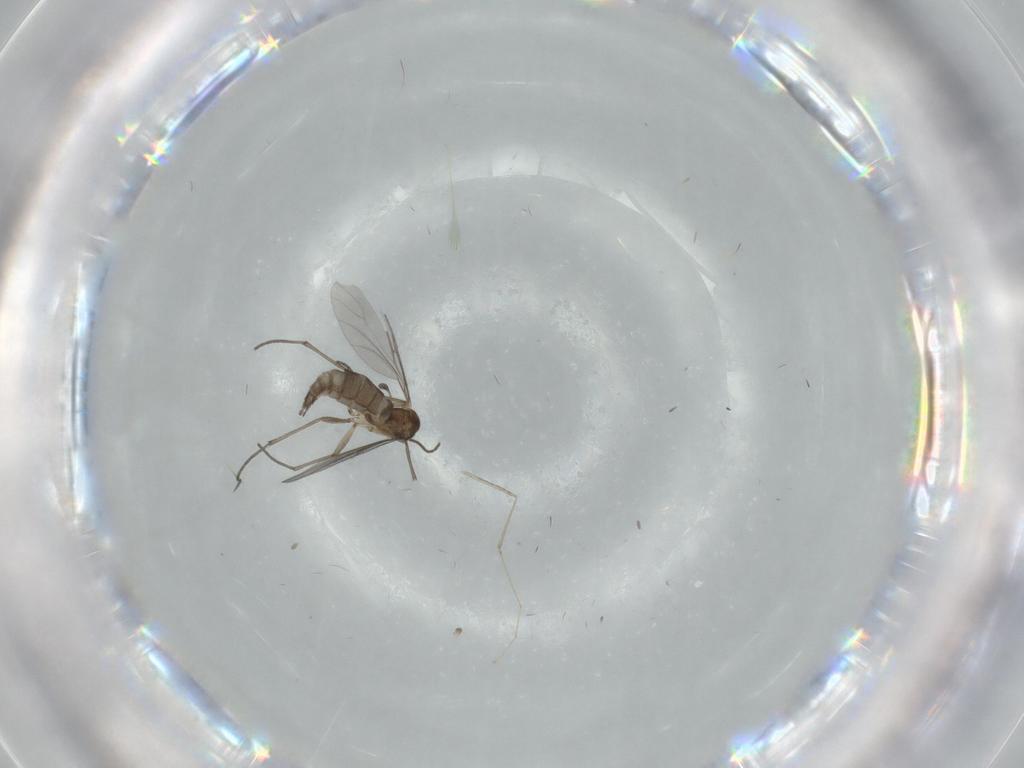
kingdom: Animalia
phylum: Arthropoda
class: Insecta
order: Diptera
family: Sciaridae
